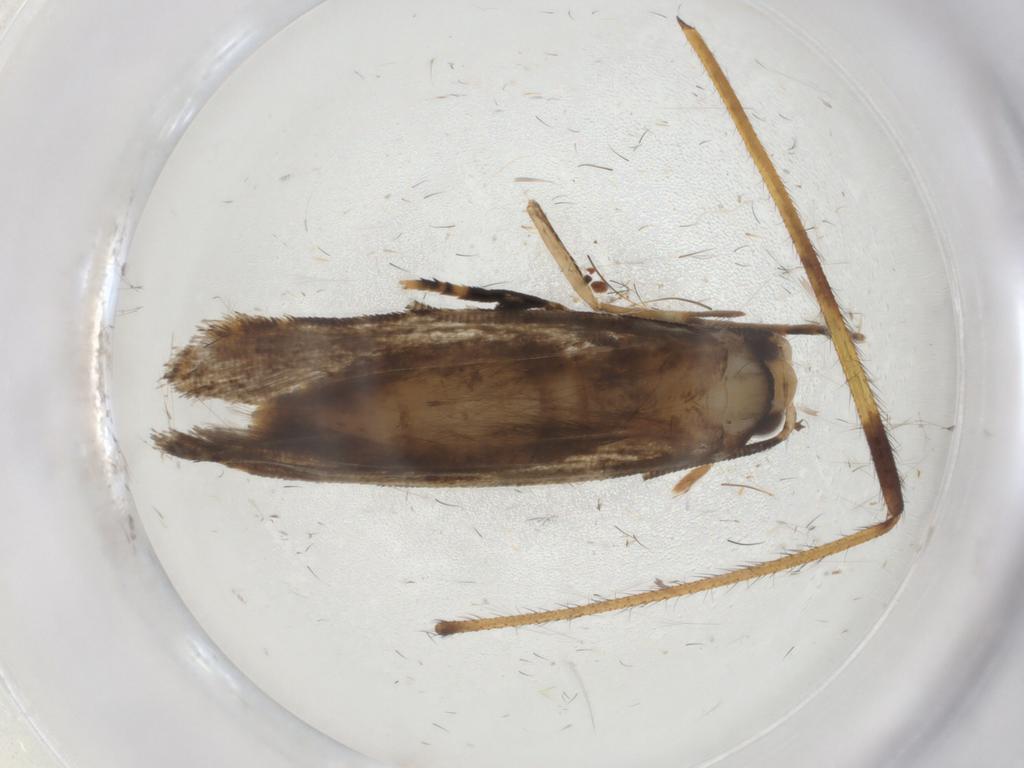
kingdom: Animalia
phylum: Arthropoda
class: Insecta
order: Lepidoptera
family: Tineidae
